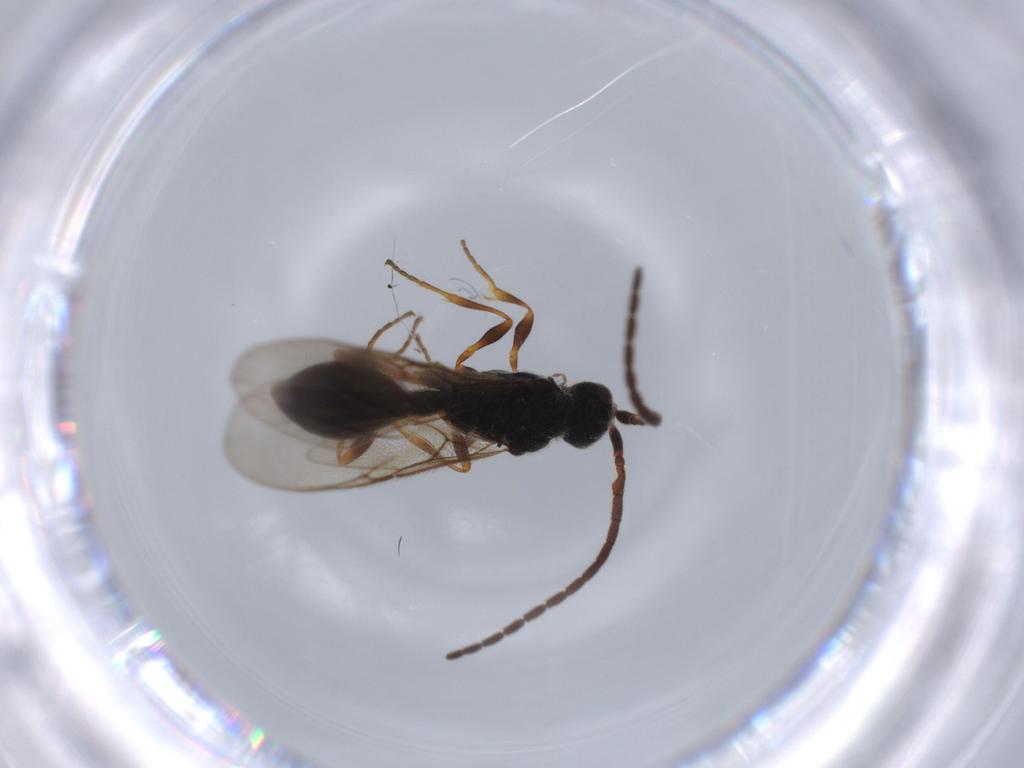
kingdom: Animalia
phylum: Arthropoda
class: Insecta
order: Hymenoptera
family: Diapriidae
